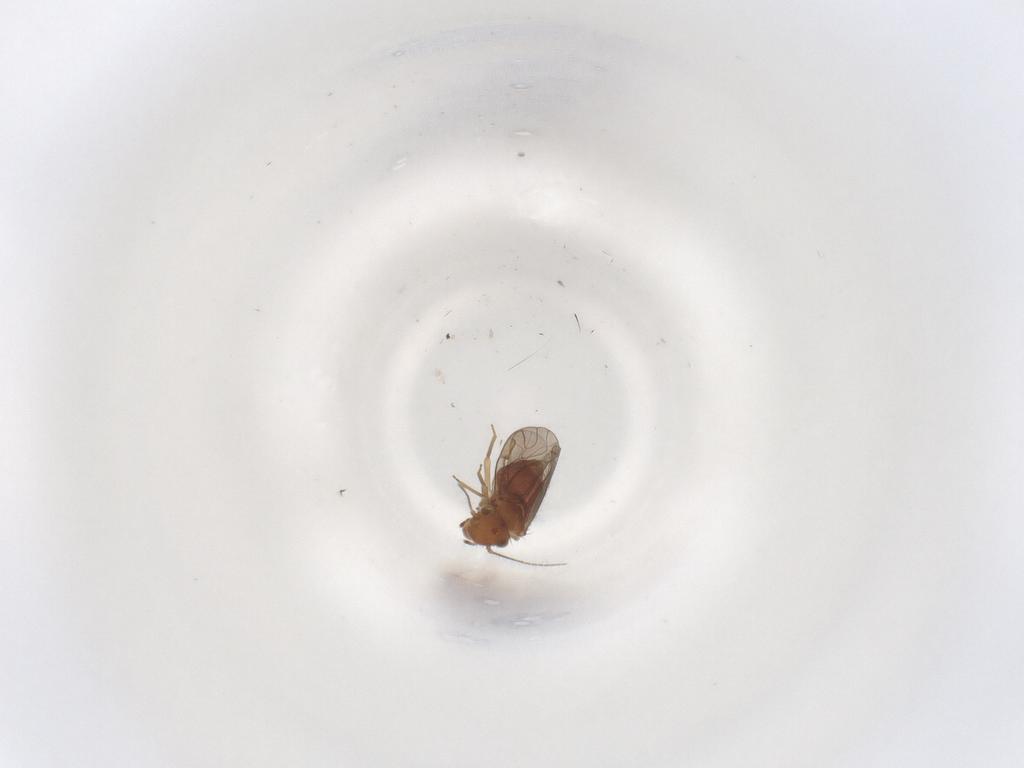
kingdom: Animalia
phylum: Arthropoda
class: Insecta
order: Psocodea
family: Ectopsocidae
